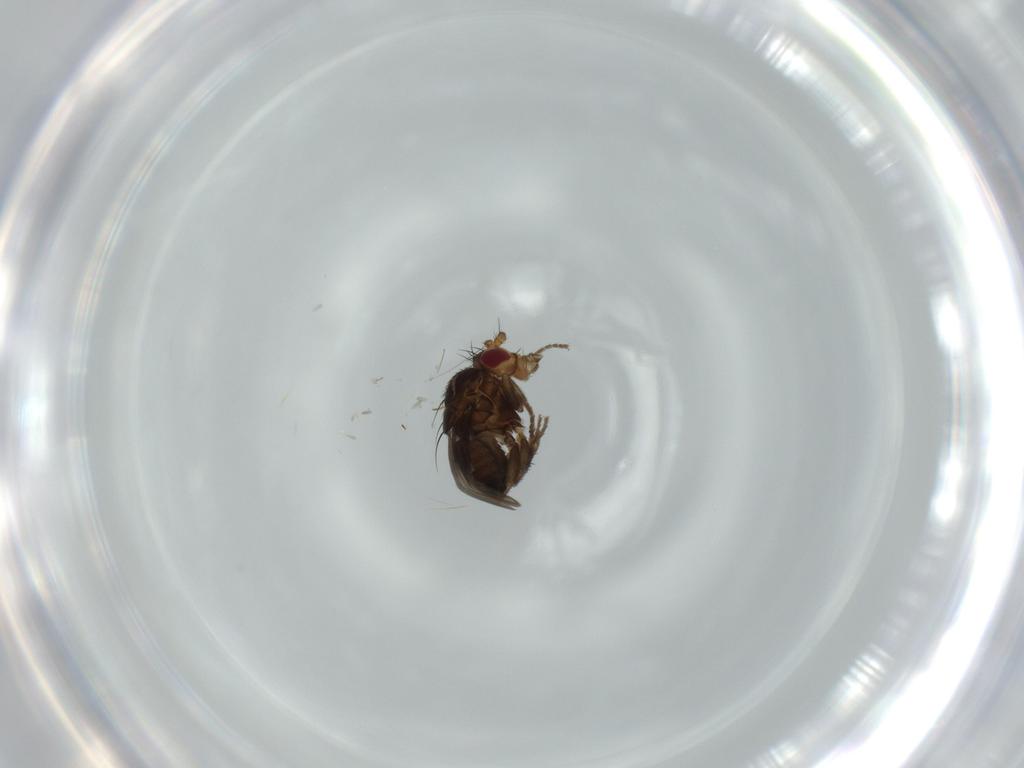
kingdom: Animalia
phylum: Arthropoda
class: Insecta
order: Diptera
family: Sphaeroceridae
